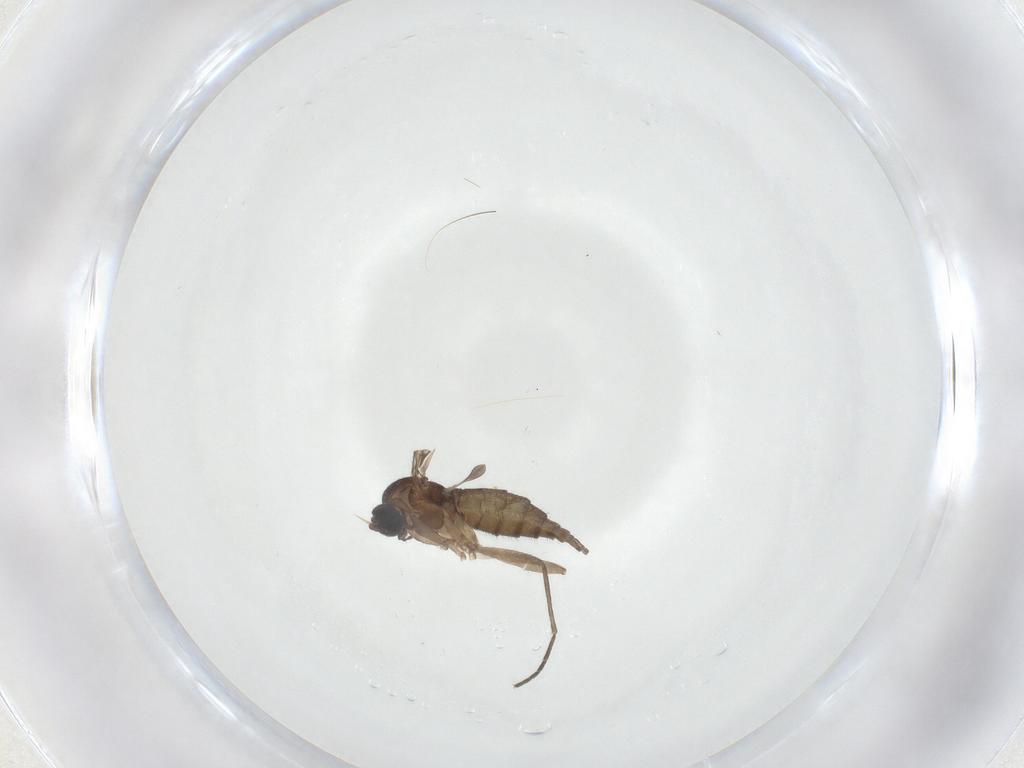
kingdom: Animalia
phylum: Arthropoda
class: Insecta
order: Diptera
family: Sciaridae
